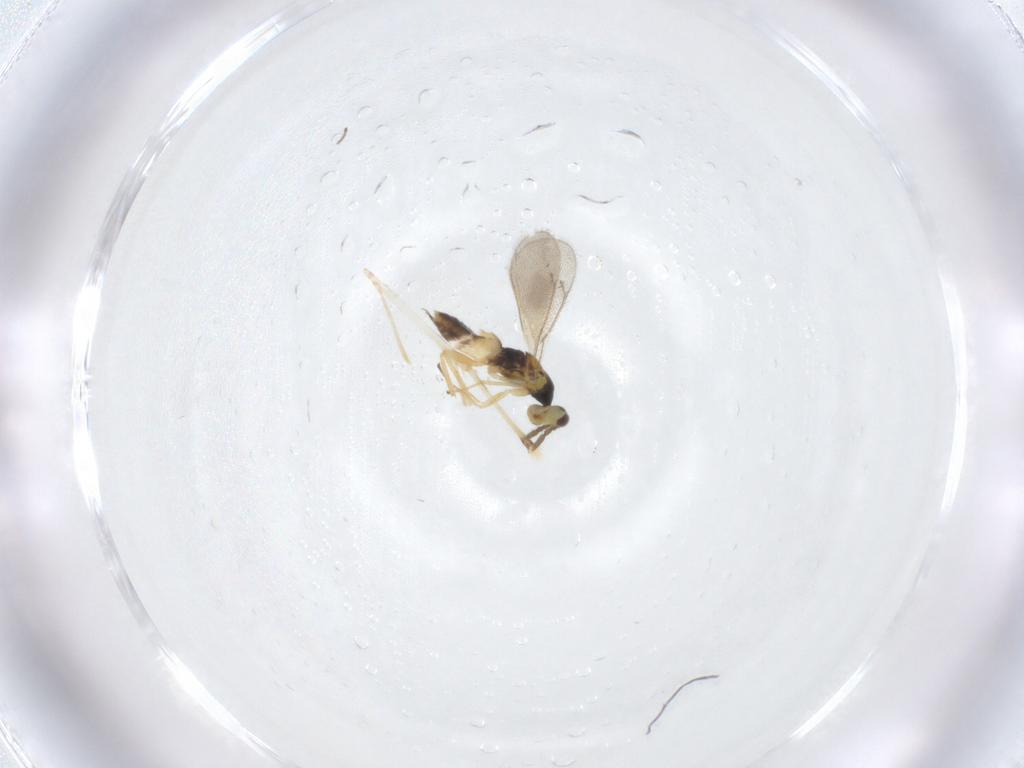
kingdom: Animalia
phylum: Arthropoda
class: Insecta
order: Hymenoptera
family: Eulophidae
